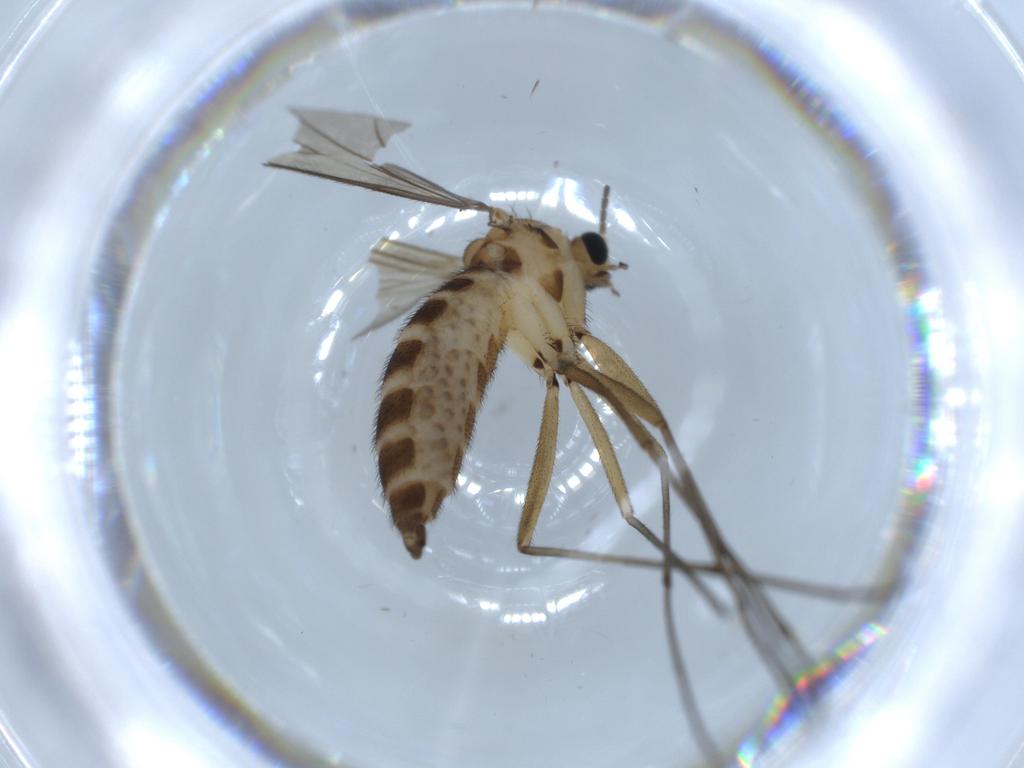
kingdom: Animalia
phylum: Arthropoda
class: Insecta
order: Diptera
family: Sciaridae
